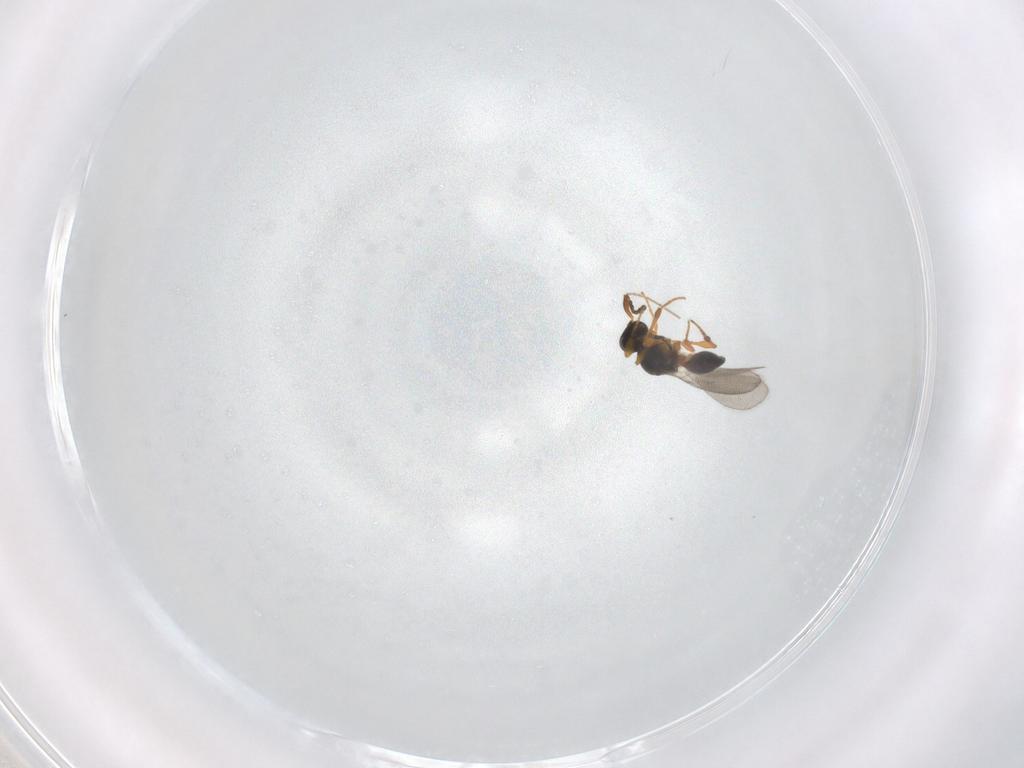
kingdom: Animalia
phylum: Arthropoda
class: Insecta
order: Hymenoptera
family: Platygastridae
